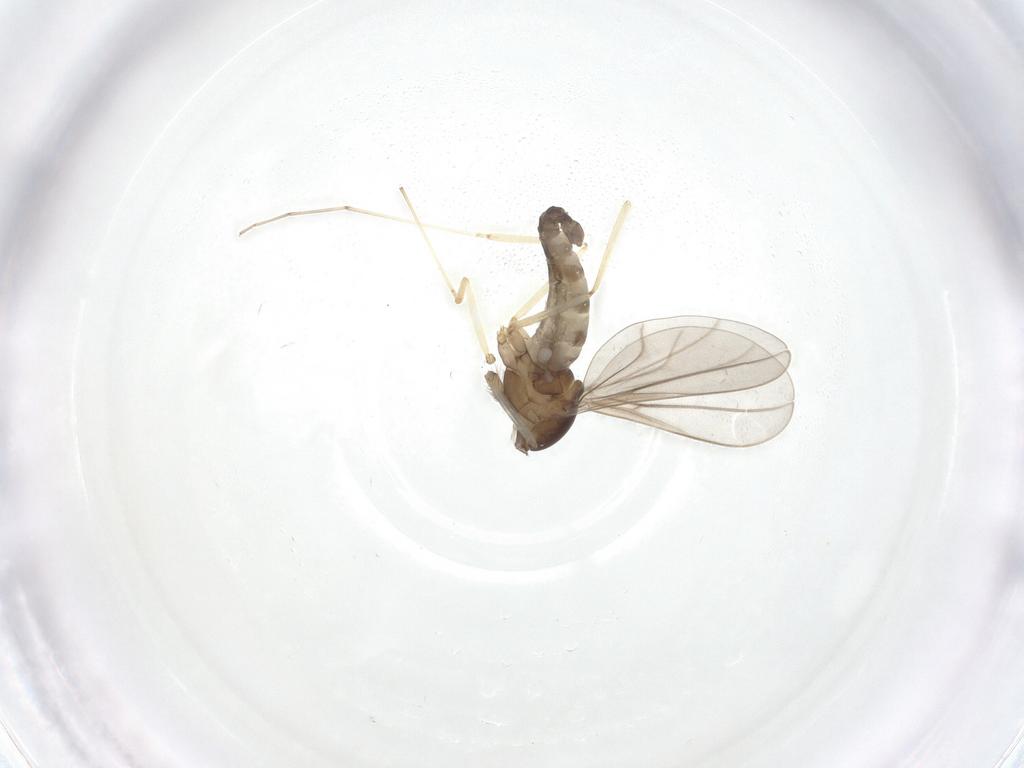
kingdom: Animalia
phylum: Arthropoda
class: Insecta
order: Diptera
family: Cecidomyiidae
